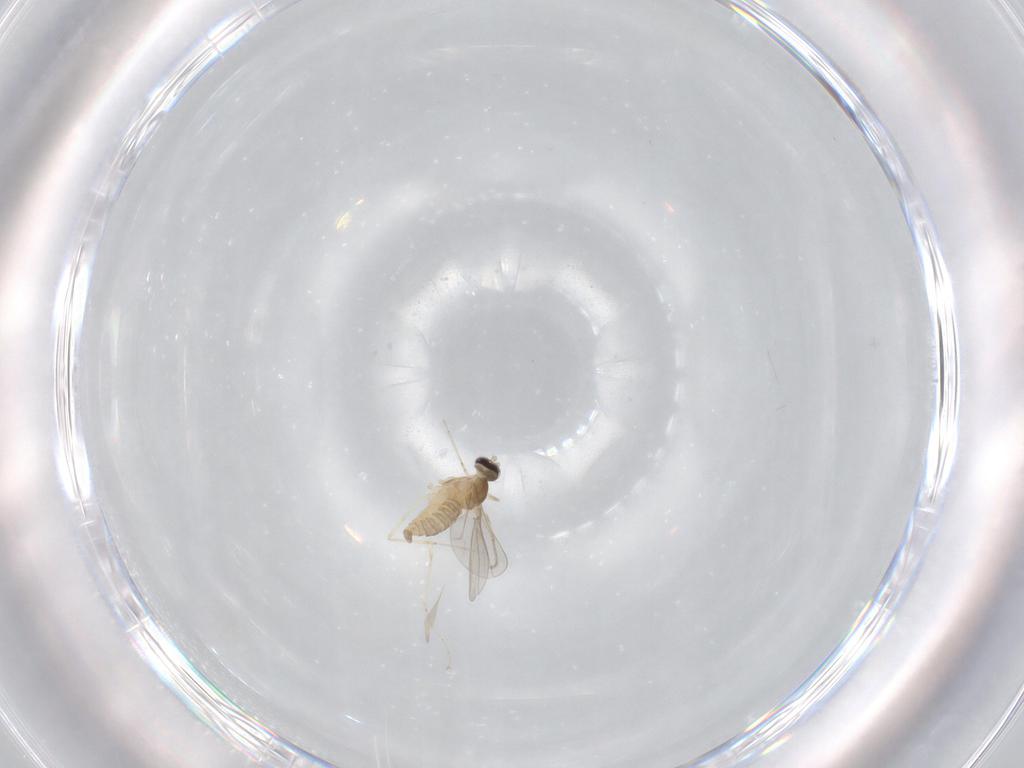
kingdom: Animalia
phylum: Arthropoda
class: Insecta
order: Diptera
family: Cecidomyiidae
